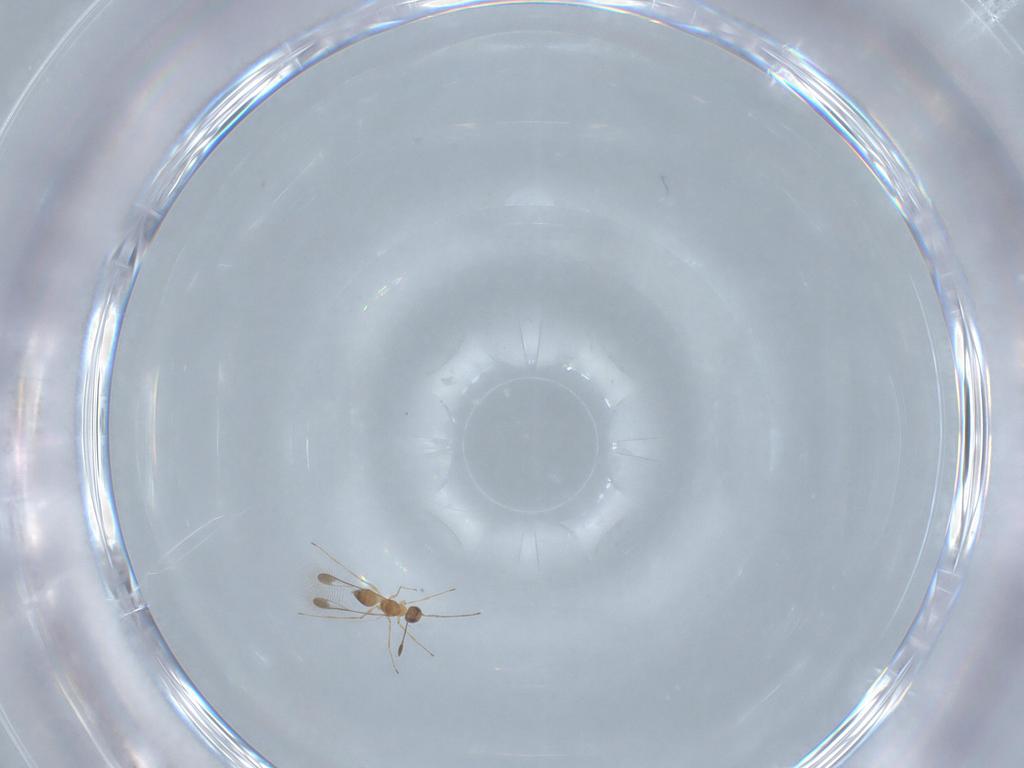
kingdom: Animalia
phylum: Arthropoda
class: Insecta
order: Hymenoptera
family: Mymaridae
